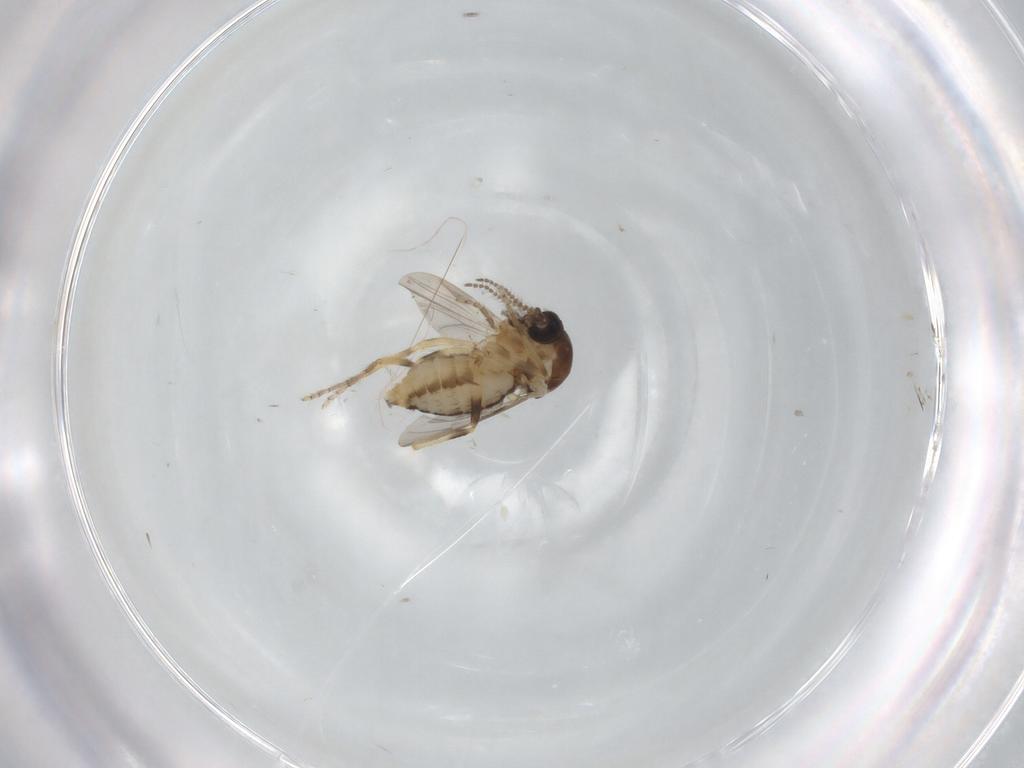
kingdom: Animalia
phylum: Arthropoda
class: Insecta
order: Diptera
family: Ceratopogonidae
